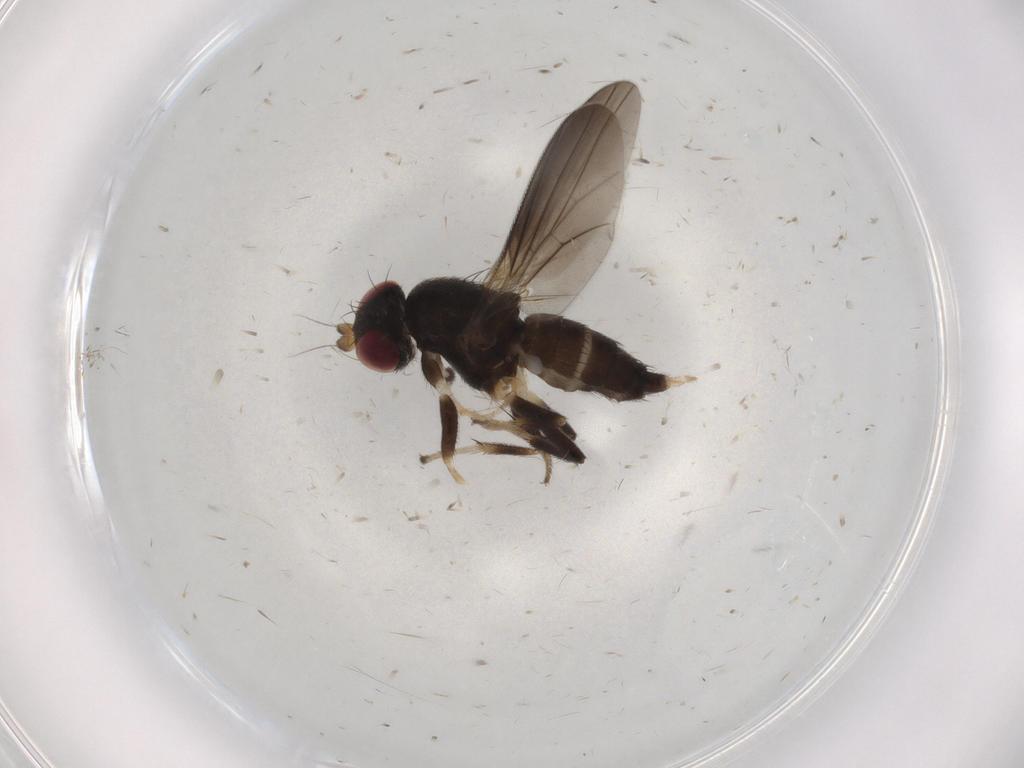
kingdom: Animalia
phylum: Arthropoda
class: Insecta
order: Diptera
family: Clusiidae
